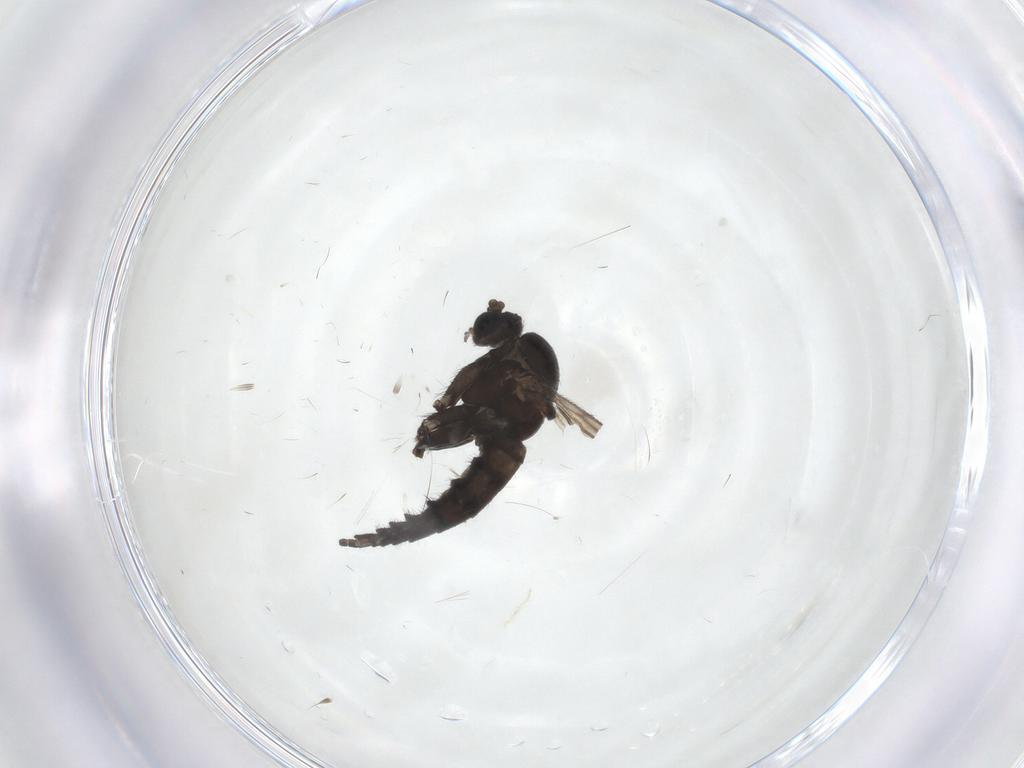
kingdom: Animalia
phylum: Arthropoda
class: Insecta
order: Diptera
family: Sciaridae
